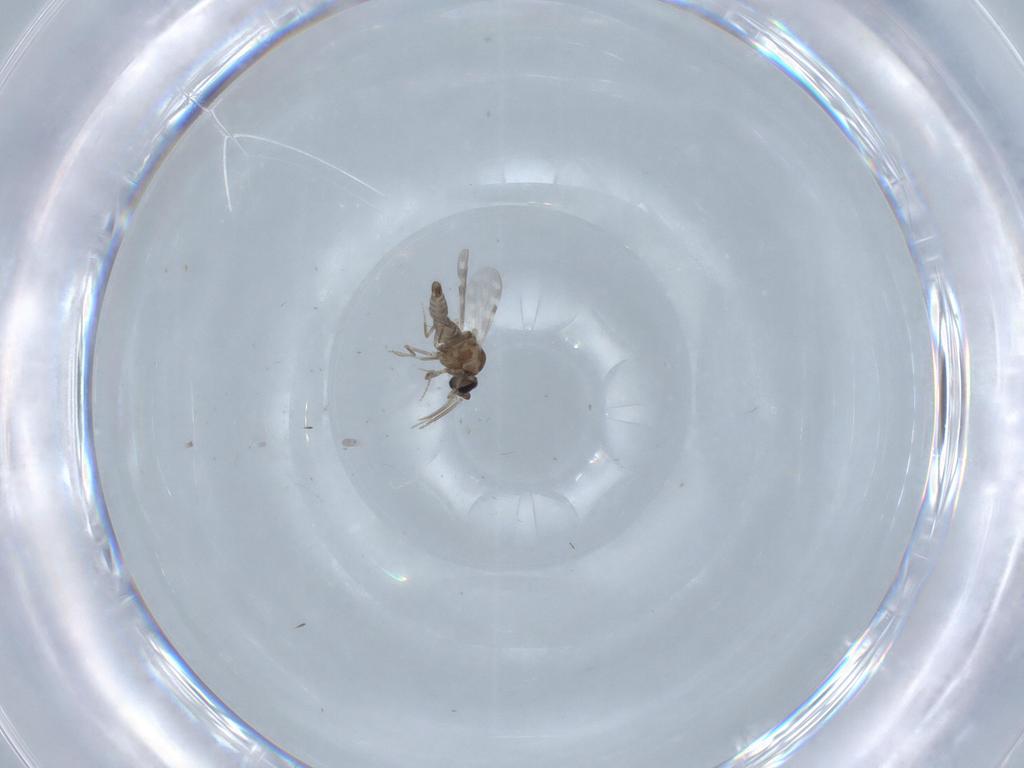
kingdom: Animalia
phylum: Arthropoda
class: Insecta
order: Diptera
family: Ceratopogonidae
